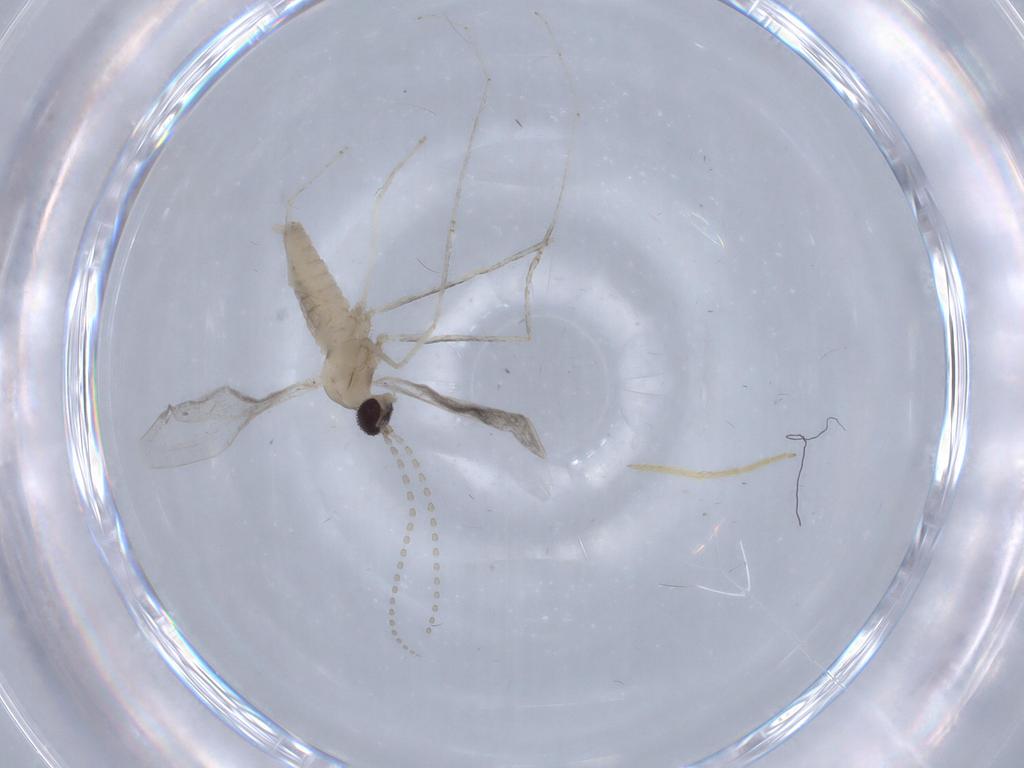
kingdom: Animalia
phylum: Arthropoda
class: Insecta
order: Diptera
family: Cecidomyiidae
